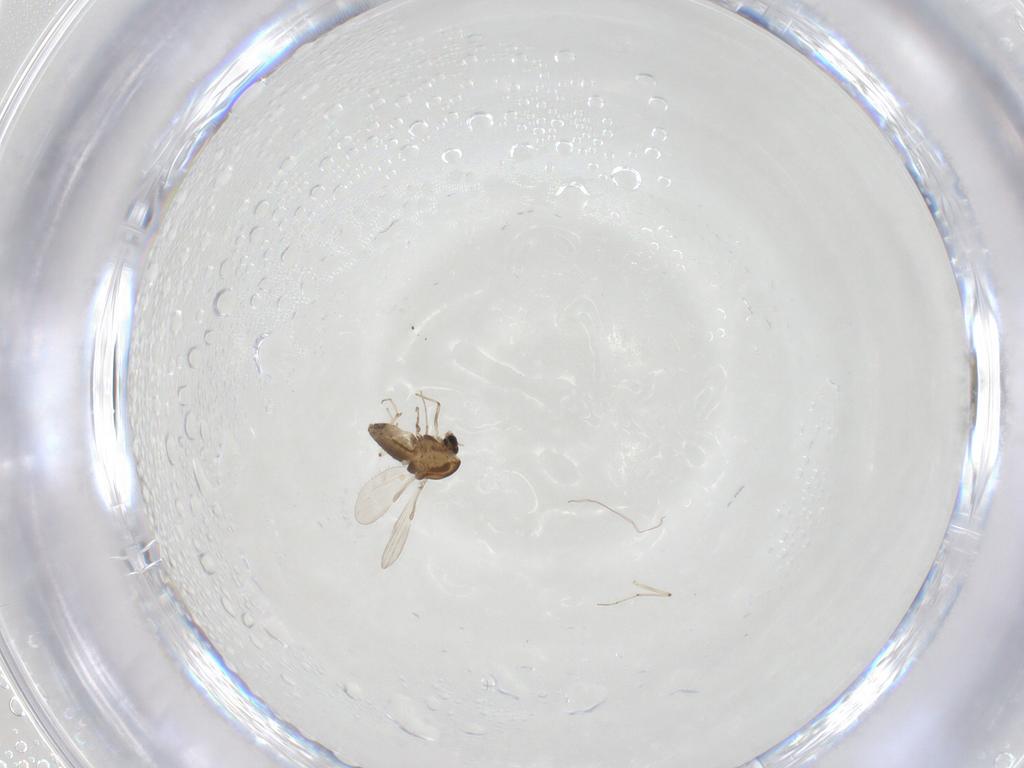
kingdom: Animalia
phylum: Arthropoda
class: Insecta
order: Diptera
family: Chironomidae
